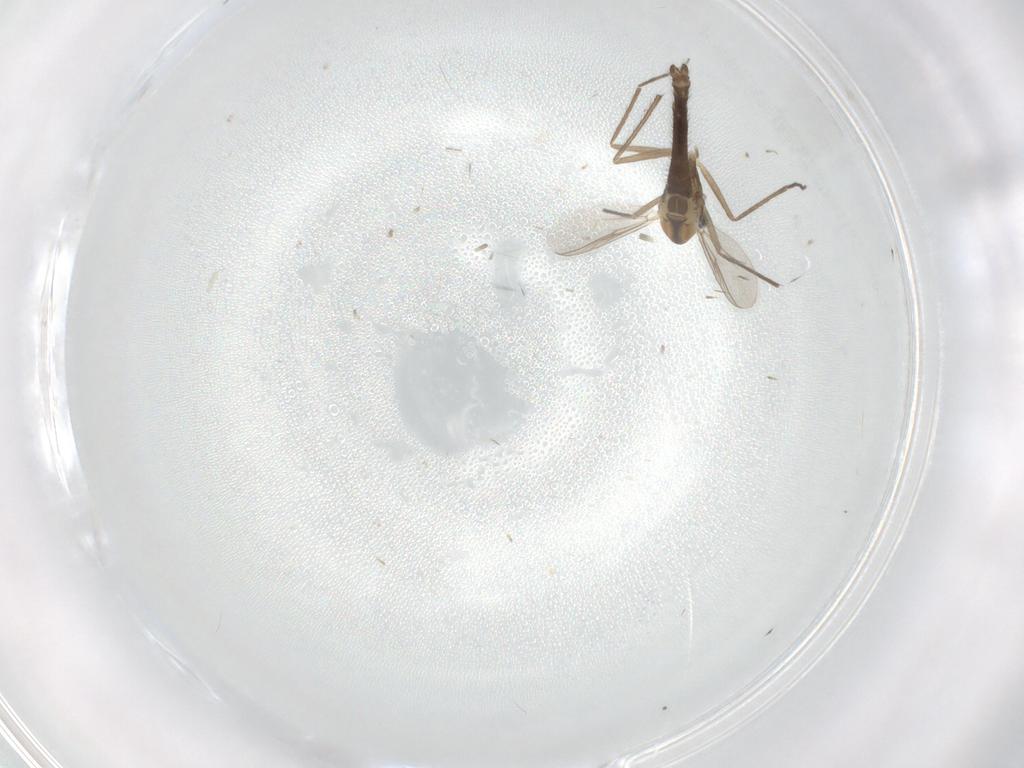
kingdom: Animalia
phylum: Arthropoda
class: Insecta
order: Diptera
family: Chironomidae
